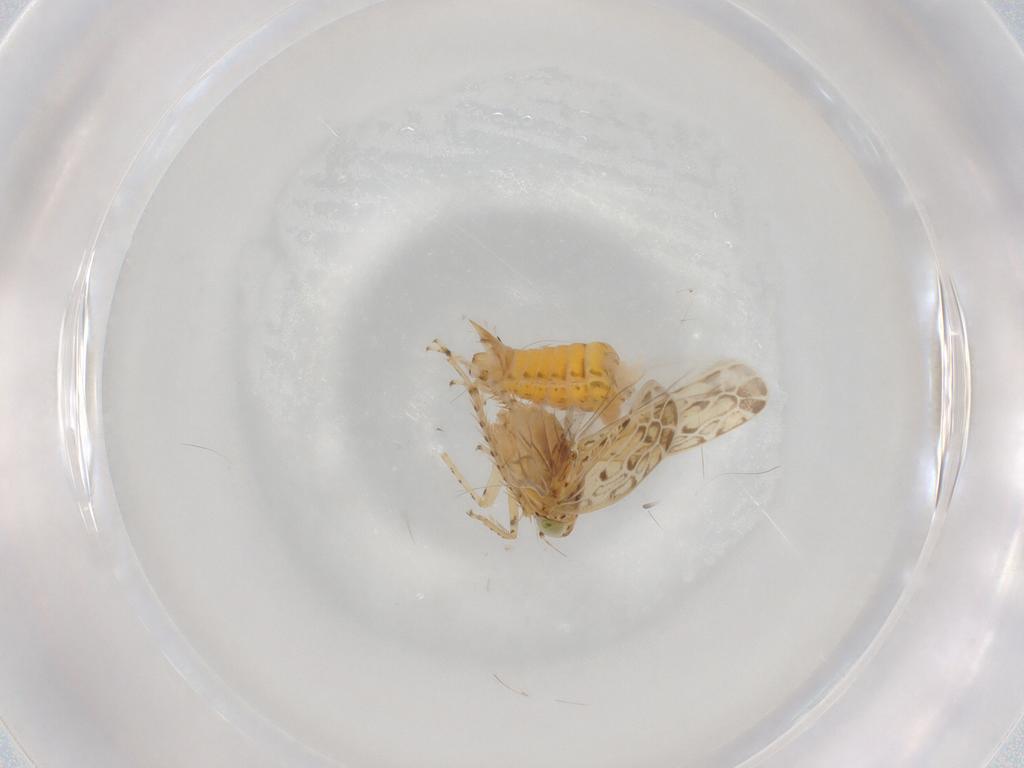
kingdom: Animalia
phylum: Arthropoda
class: Insecta
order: Hemiptera
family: Cicadellidae
